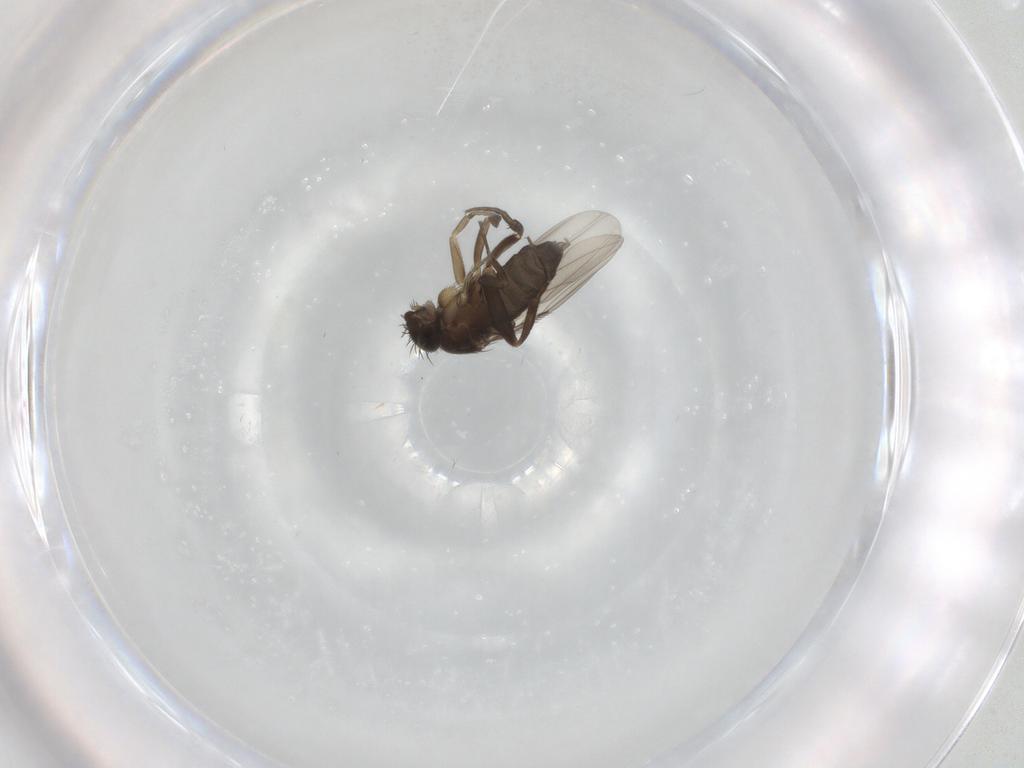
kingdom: Animalia
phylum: Arthropoda
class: Insecta
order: Diptera
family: Phoridae
